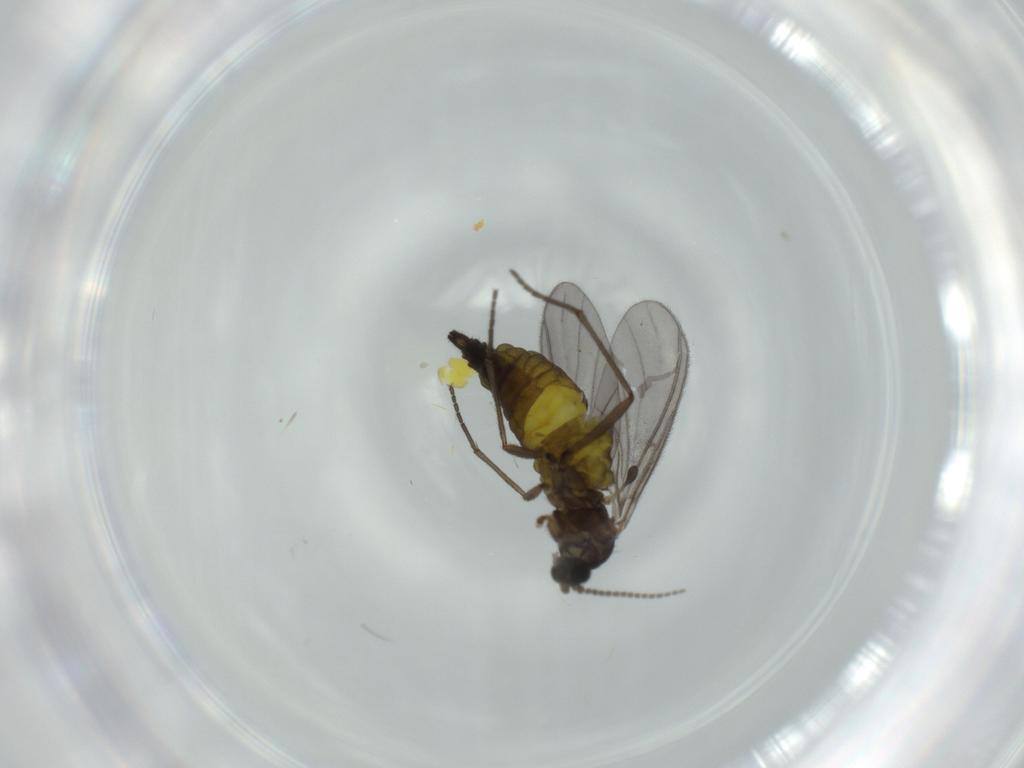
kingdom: Animalia
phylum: Arthropoda
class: Insecta
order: Diptera
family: Sciaridae
